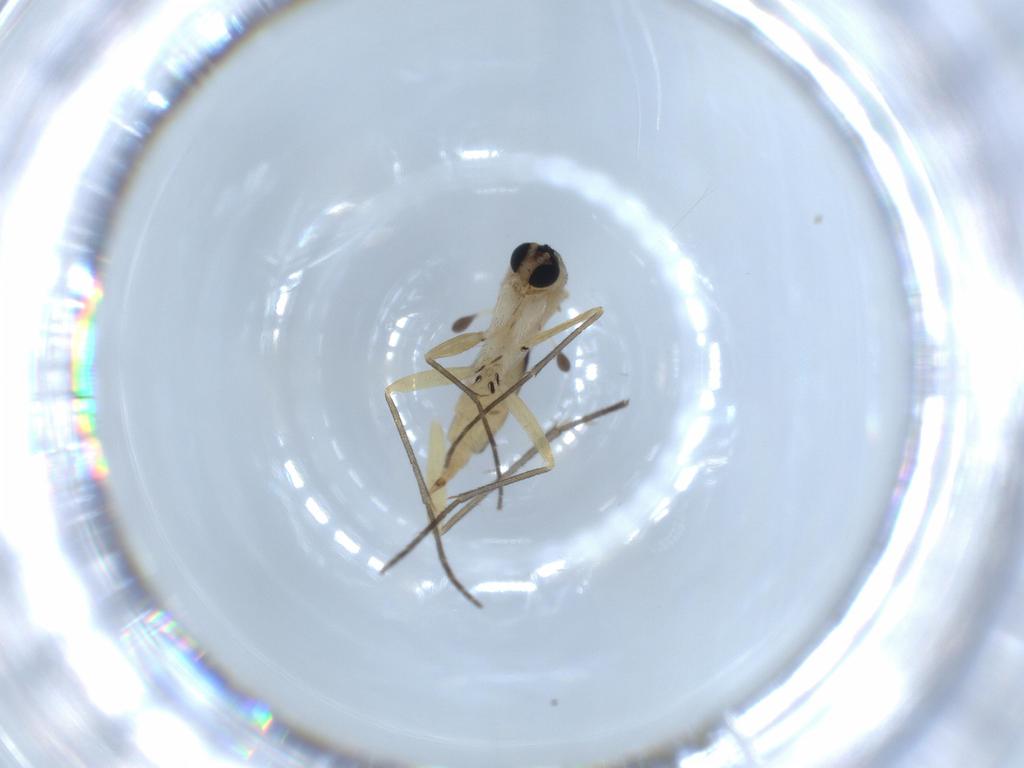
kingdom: Animalia
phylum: Arthropoda
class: Insecta
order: Diptera
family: Sciaridae
